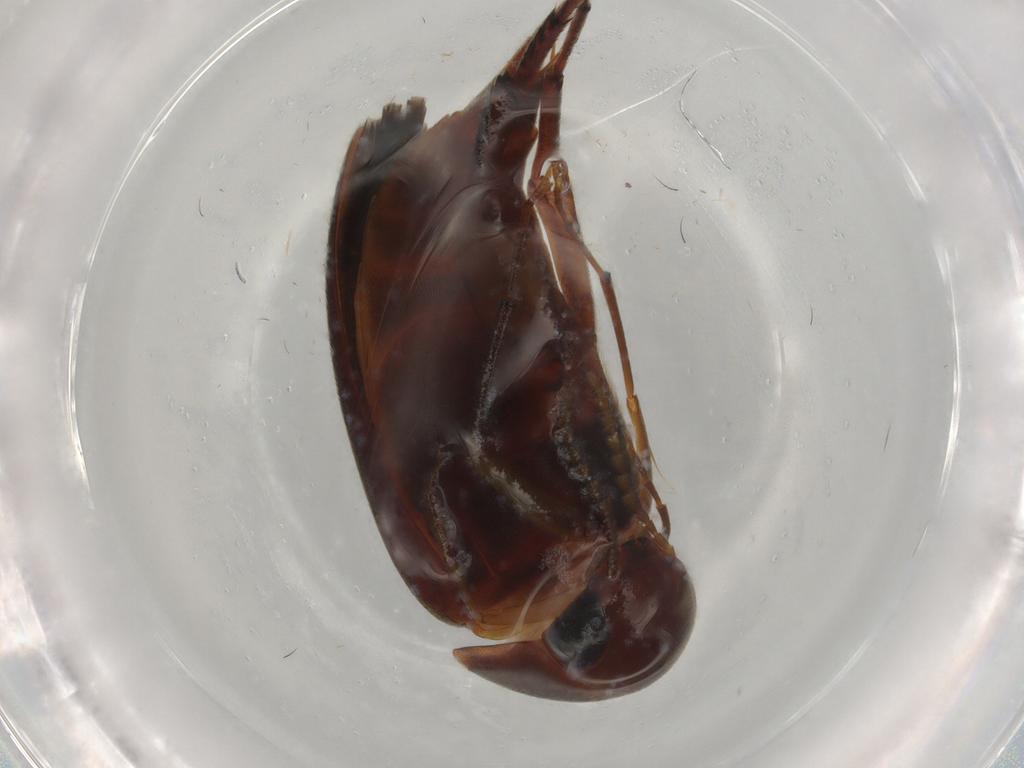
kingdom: Animalia
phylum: Arthropoda
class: Insecta
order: Coleoptera
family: Mordellidae
